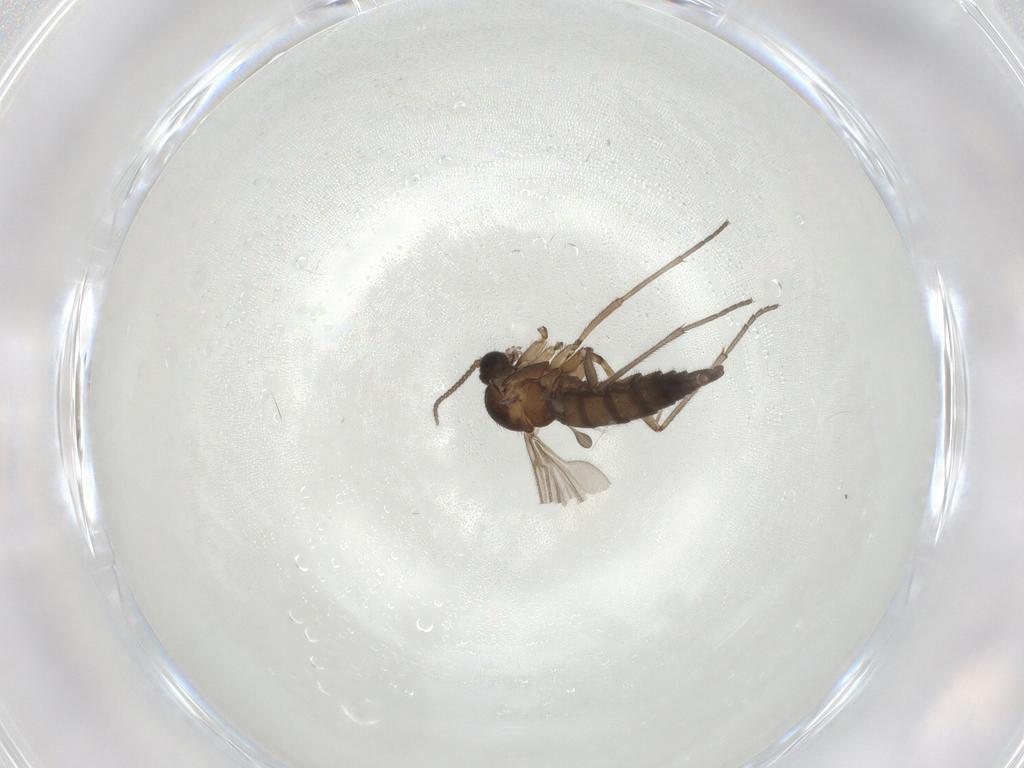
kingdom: Animalia
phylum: Arthropoda
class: Insecta
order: Diptera
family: Sciaridae
